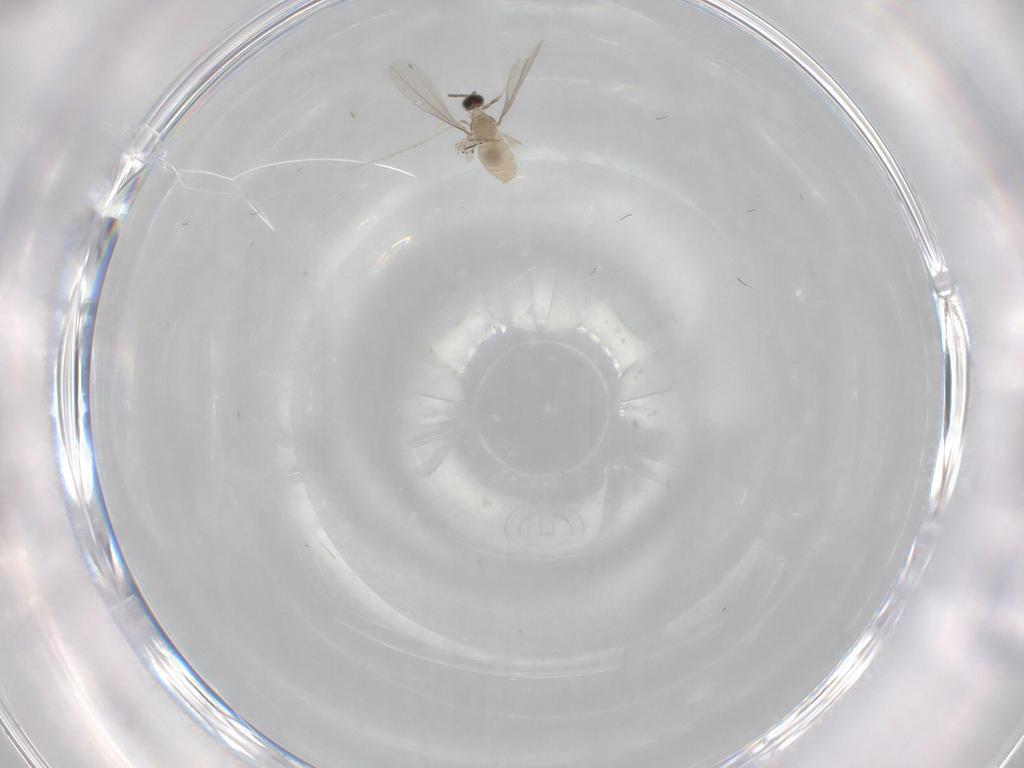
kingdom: Animalia
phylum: Arthropoda
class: Insecta
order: Diptera
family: Cecidomyiidae
